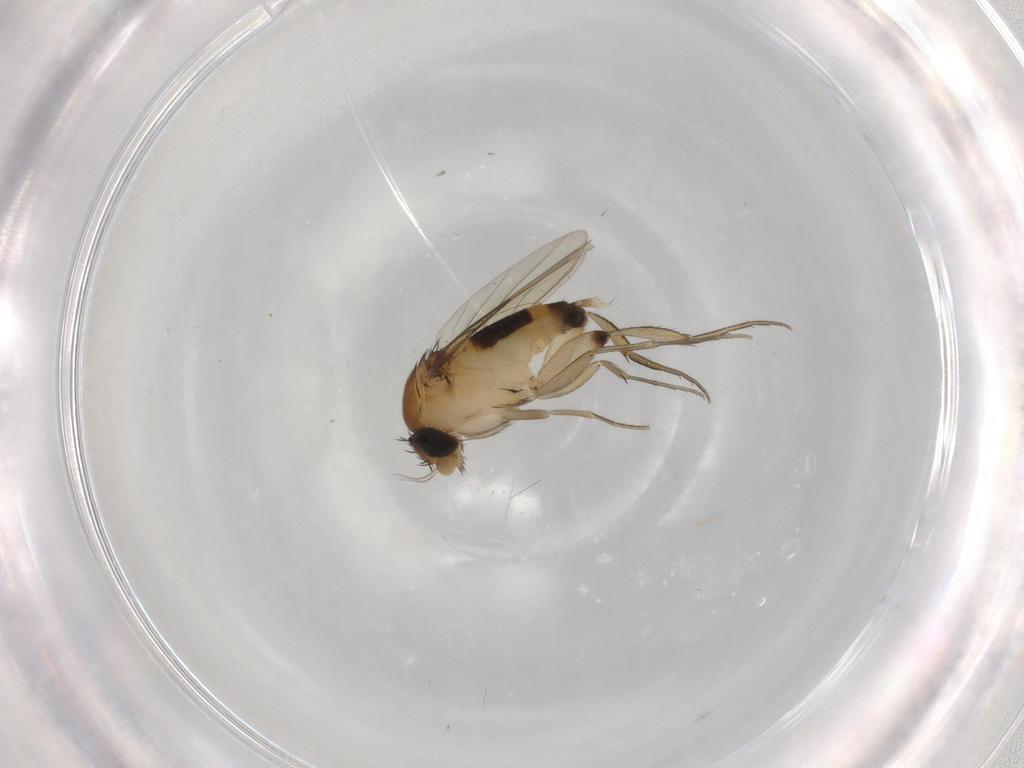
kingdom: Animalia
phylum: Arthropoda
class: Insecta
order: Diptera
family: Phoridae
